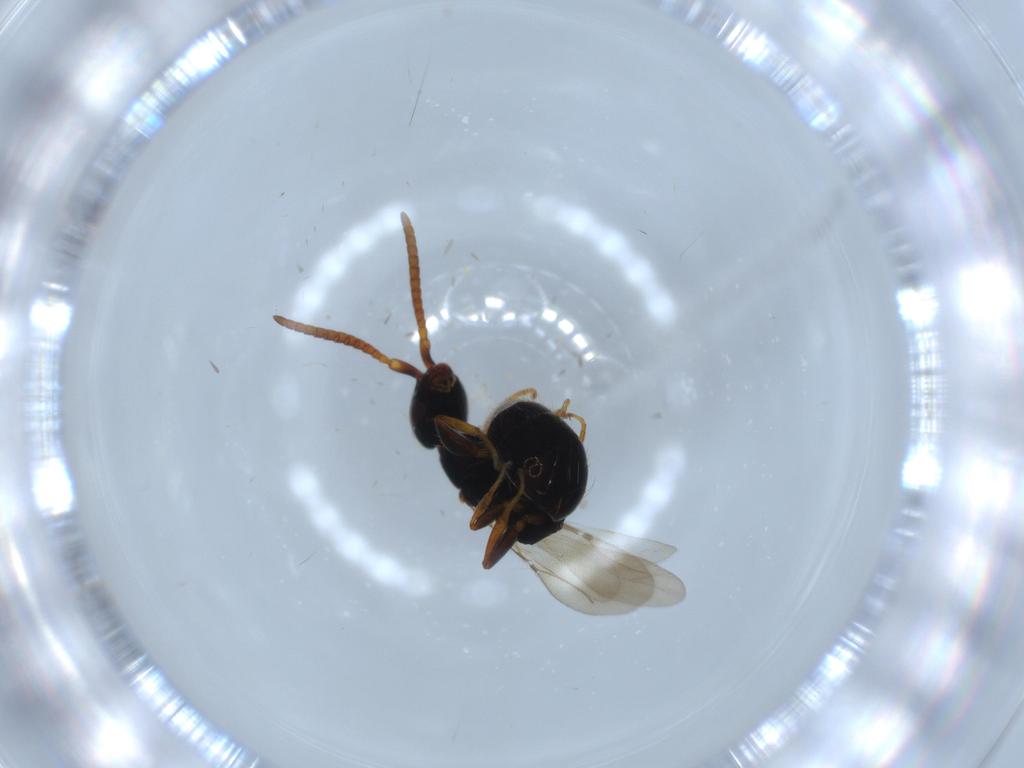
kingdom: Animalia
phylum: Arthropoda
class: Insecta
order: Hymenoptera
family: Bethylidae
